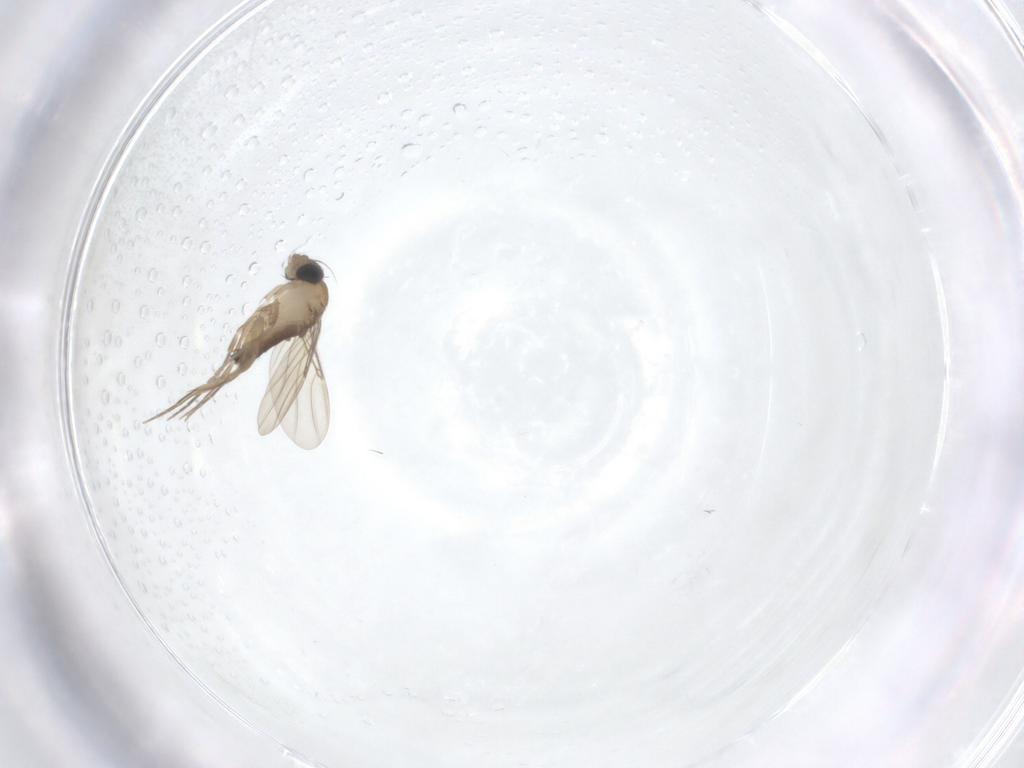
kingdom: Animalia
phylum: Arthropoda
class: Insecta
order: Diptera
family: Phoridae
